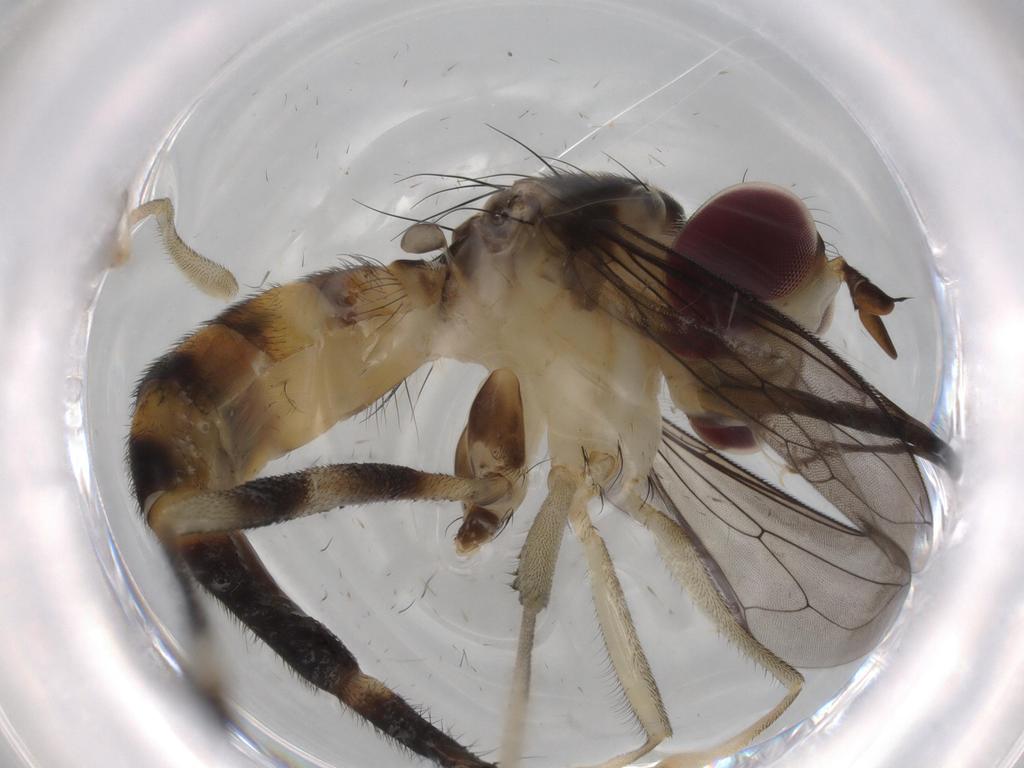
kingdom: Animalia
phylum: Arthropoda
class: Insecta
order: Diptera
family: Conopidae
